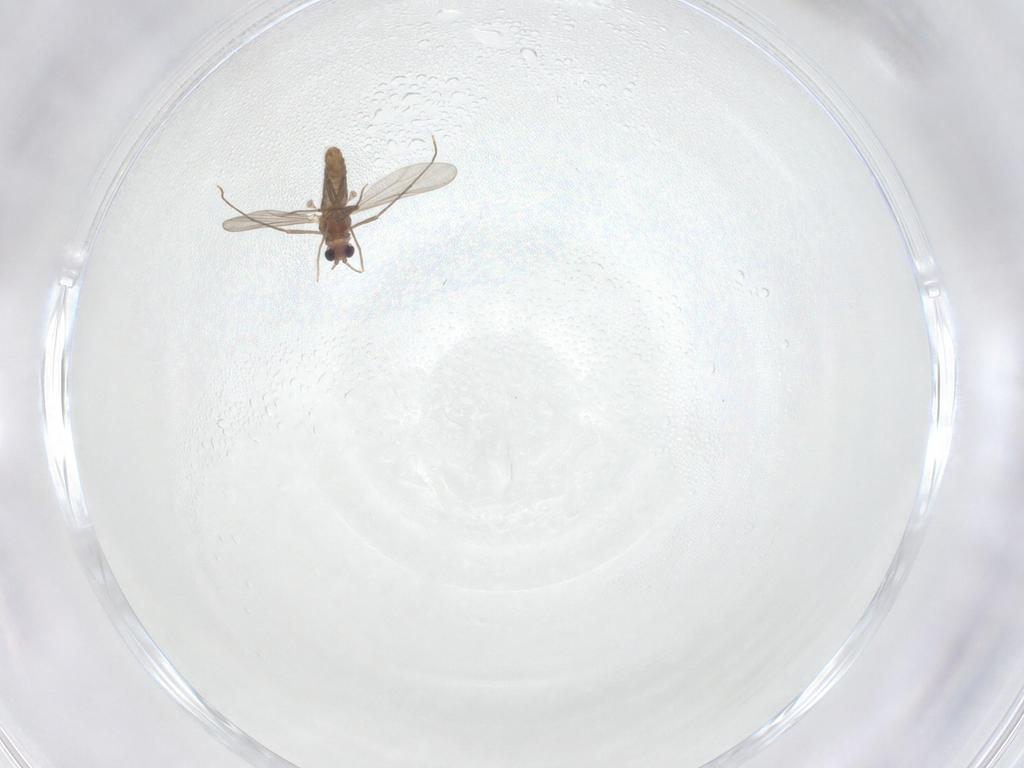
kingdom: Animalia
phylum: Arthropoda
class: Insecta
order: Diptera
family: Chironomidae
